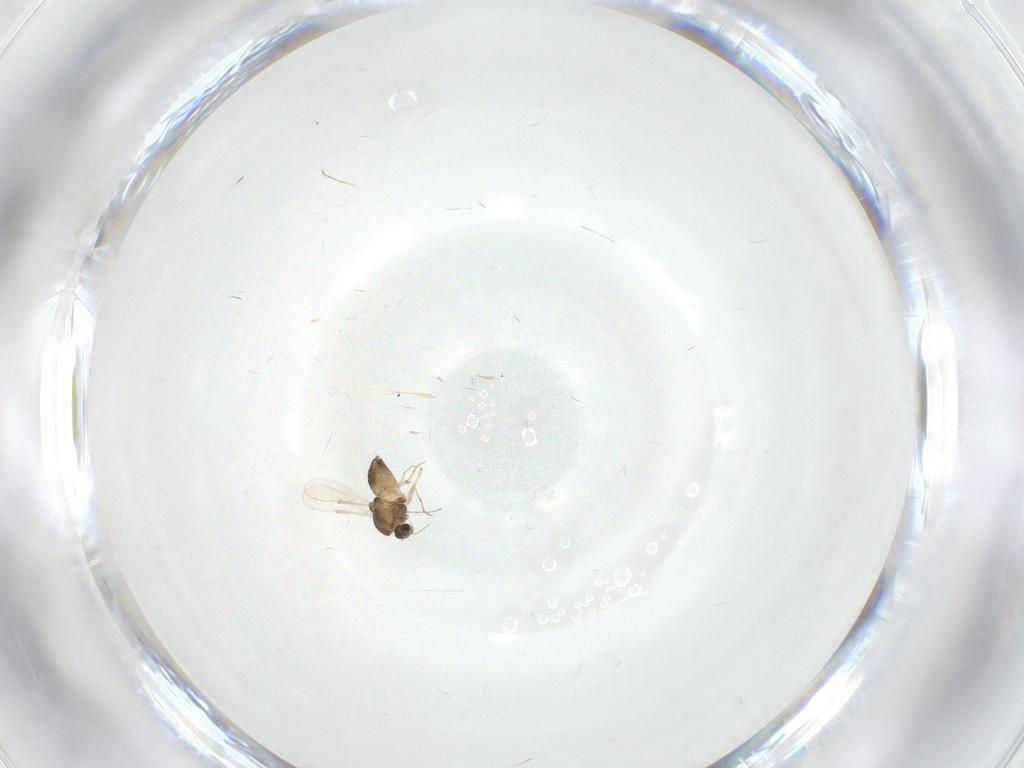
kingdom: Animalia
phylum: Arthropoda
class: Insecta
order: Diptera
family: Chironomidae
